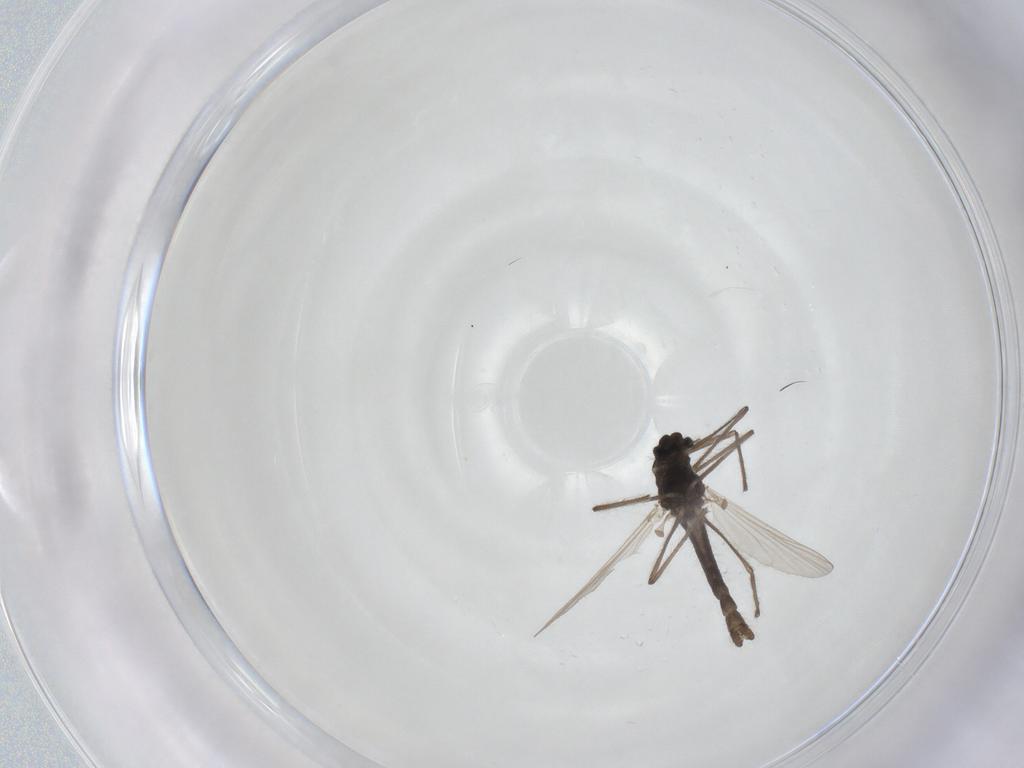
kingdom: Animalia
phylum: Arthropoda
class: Insecta
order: Diptera
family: Chironomidae
